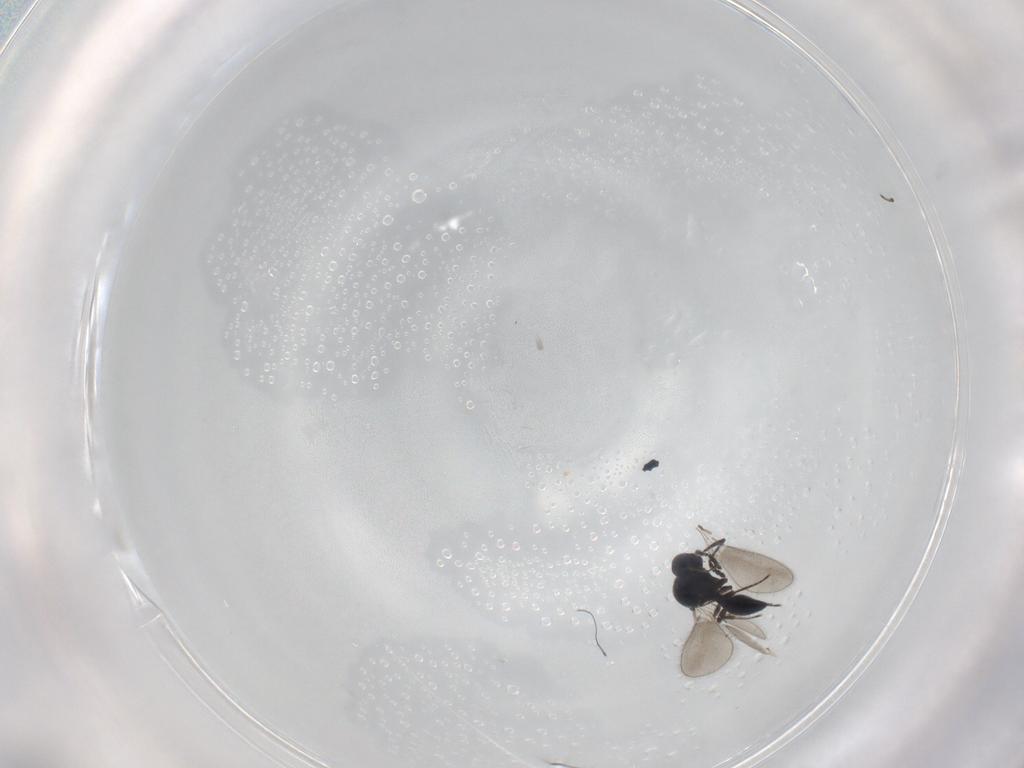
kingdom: Animalia
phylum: Arthropoda
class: Insecta
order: Hymenoptera
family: Platygastridae
